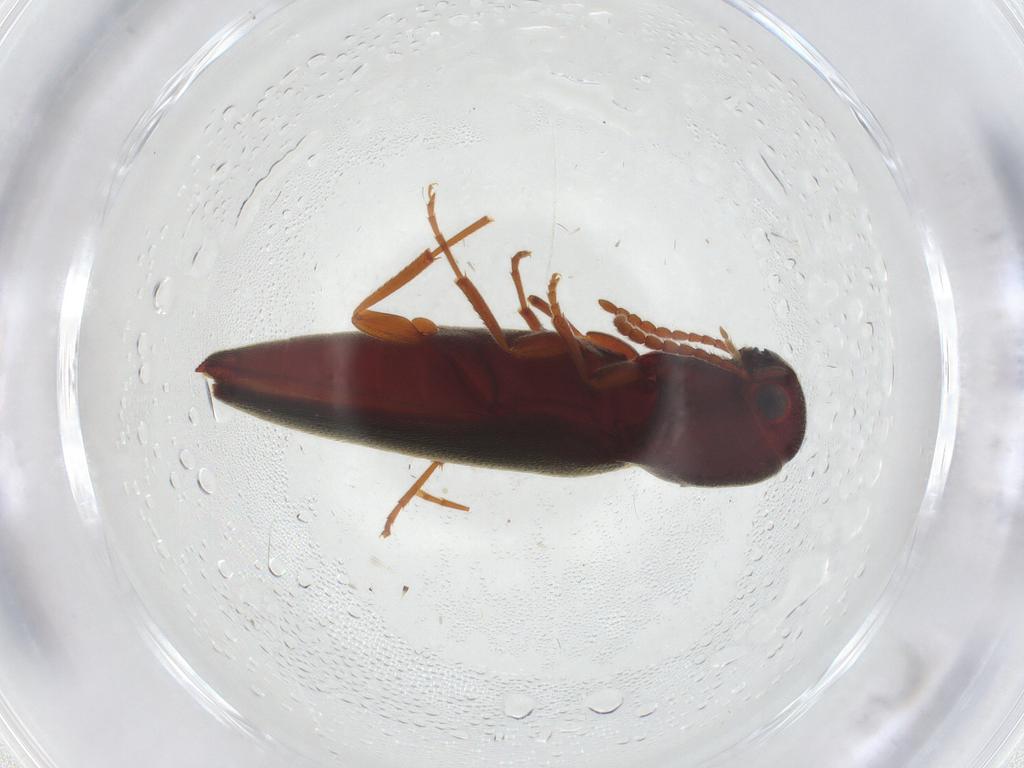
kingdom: Animalia
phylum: Arthropoda
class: Insecta
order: Coleoptera
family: Eucnemidae
